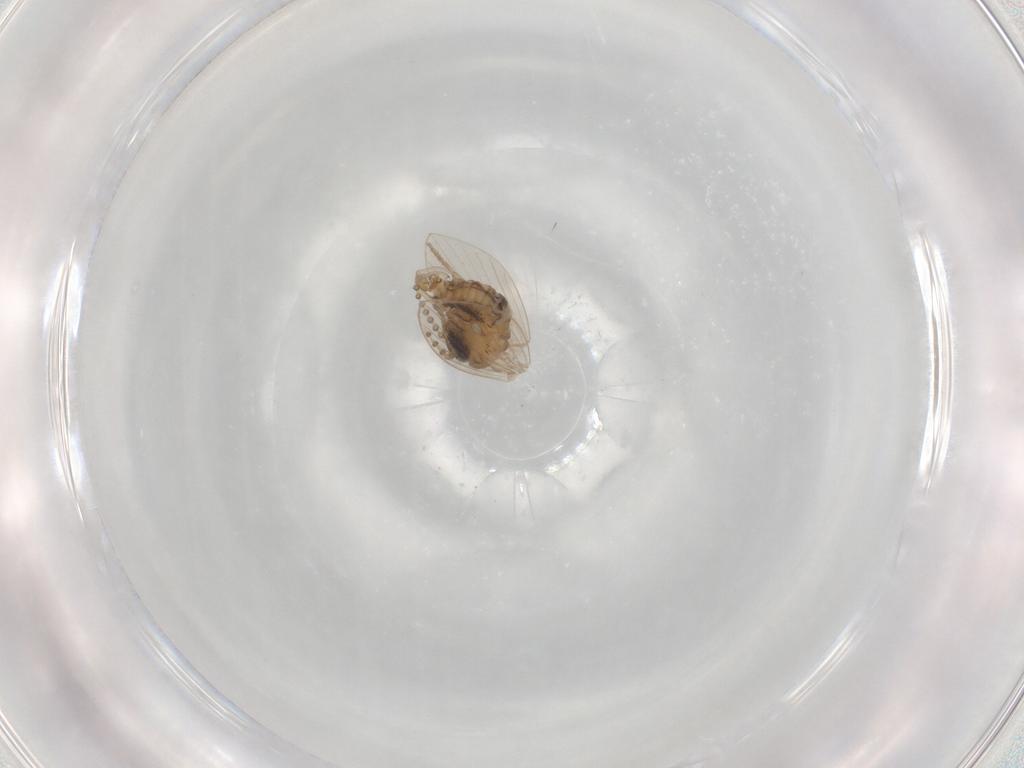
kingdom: Animalia
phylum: Arthropoda
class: Insecta
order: Diptera
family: Psychodidae
